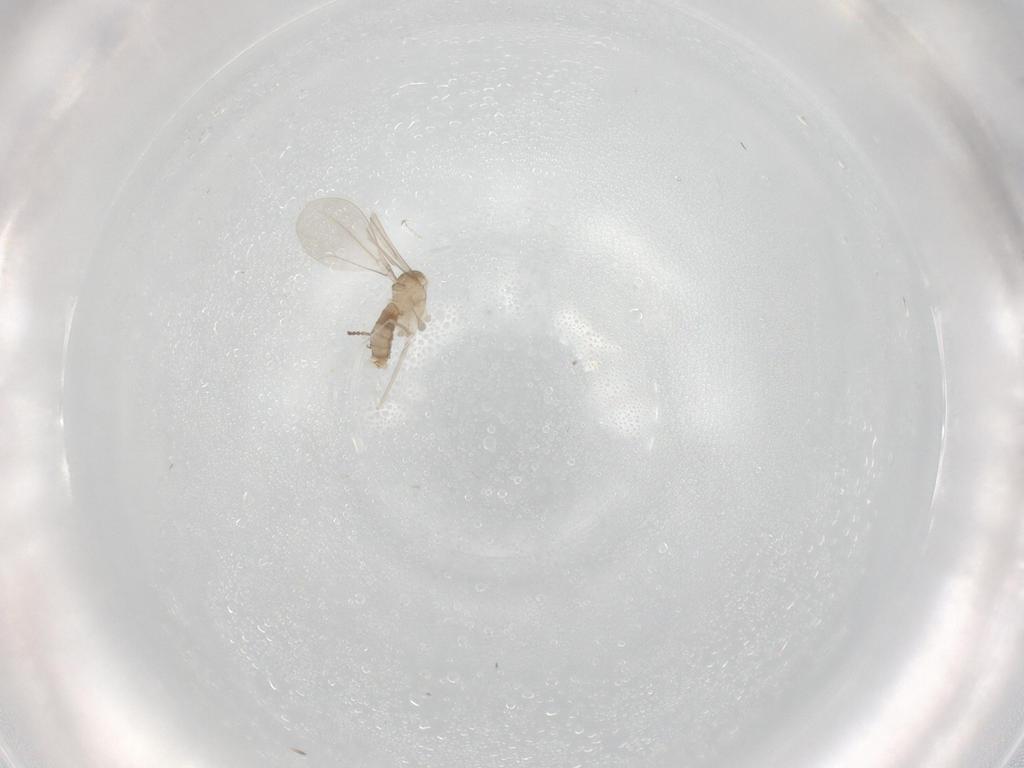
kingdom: Animalia
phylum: Arthropoda
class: Insecta
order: Diptera
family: Cecidomyiidae
